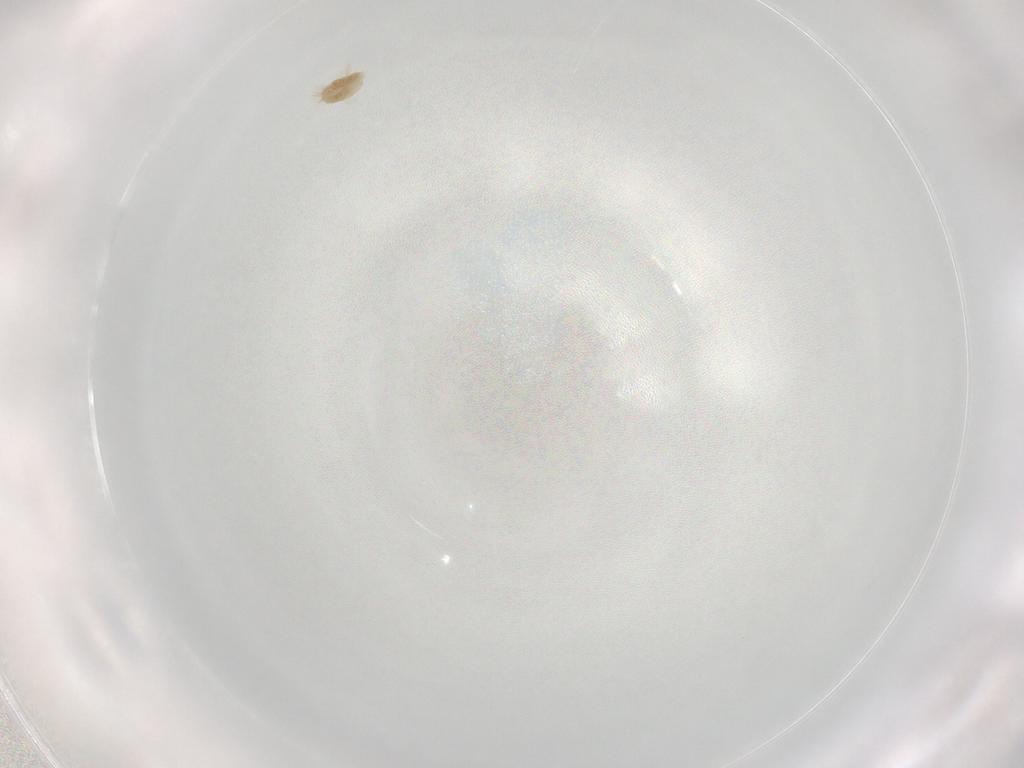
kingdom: Animalia
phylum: Arthropoda
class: Arachnida
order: Trombidiformes
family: Eupodidae
